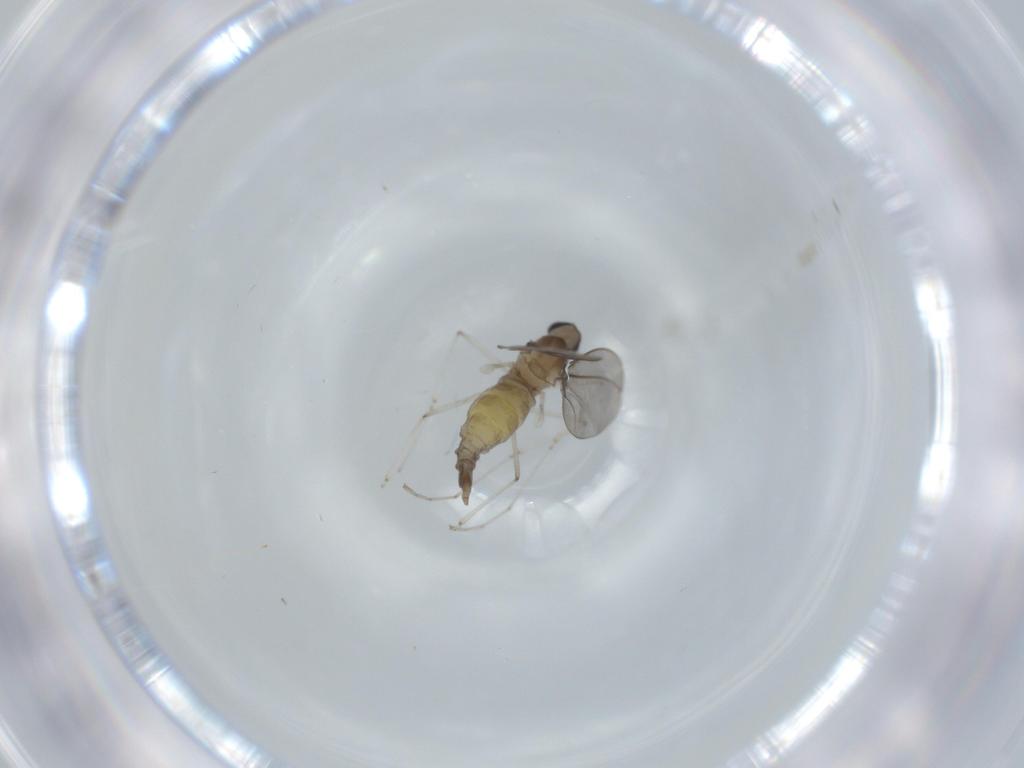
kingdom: Animalia
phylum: Arthropoda
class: Insecta
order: Diptera
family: Cecidomyiidae
